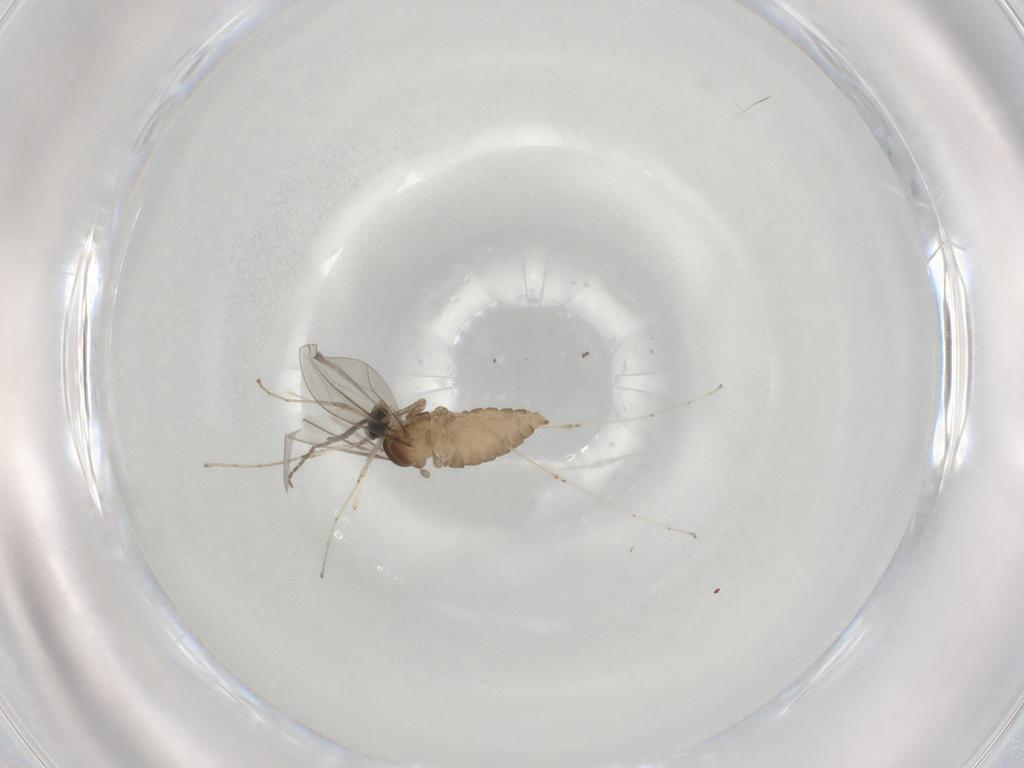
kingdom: Animalia
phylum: Arthropoda
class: Insecta
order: Diptera
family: Cecidomyiidae
